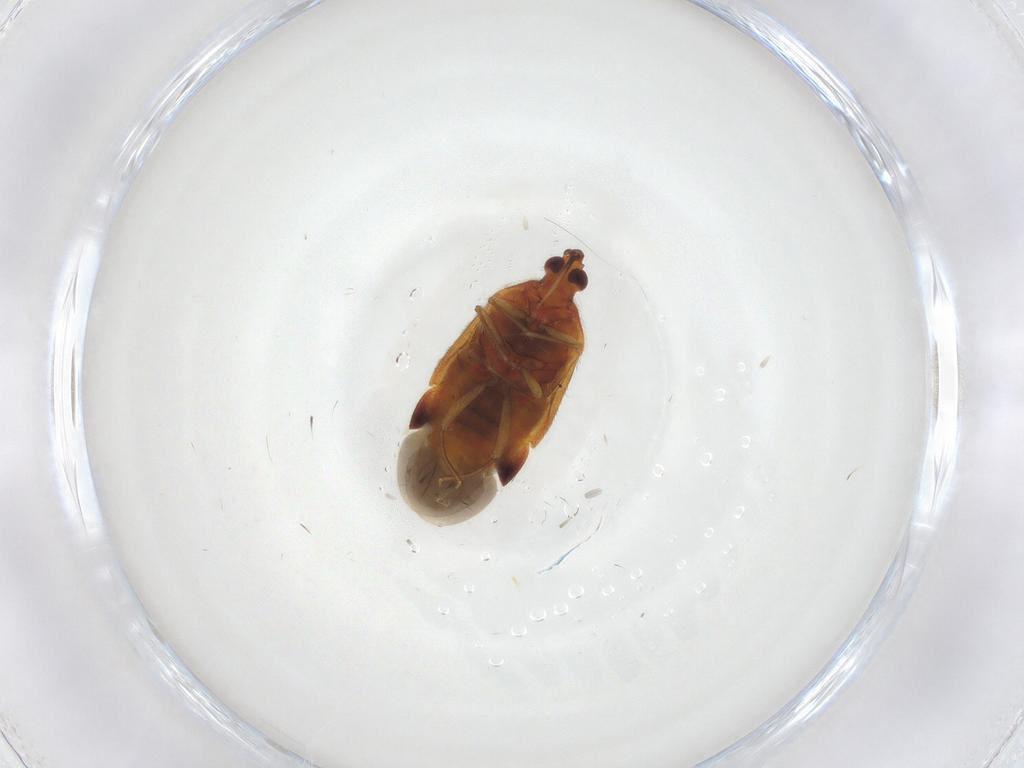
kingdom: Animalia
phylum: Arthropoda
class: Insecta
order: Hemiptera
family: Anthocoridae
